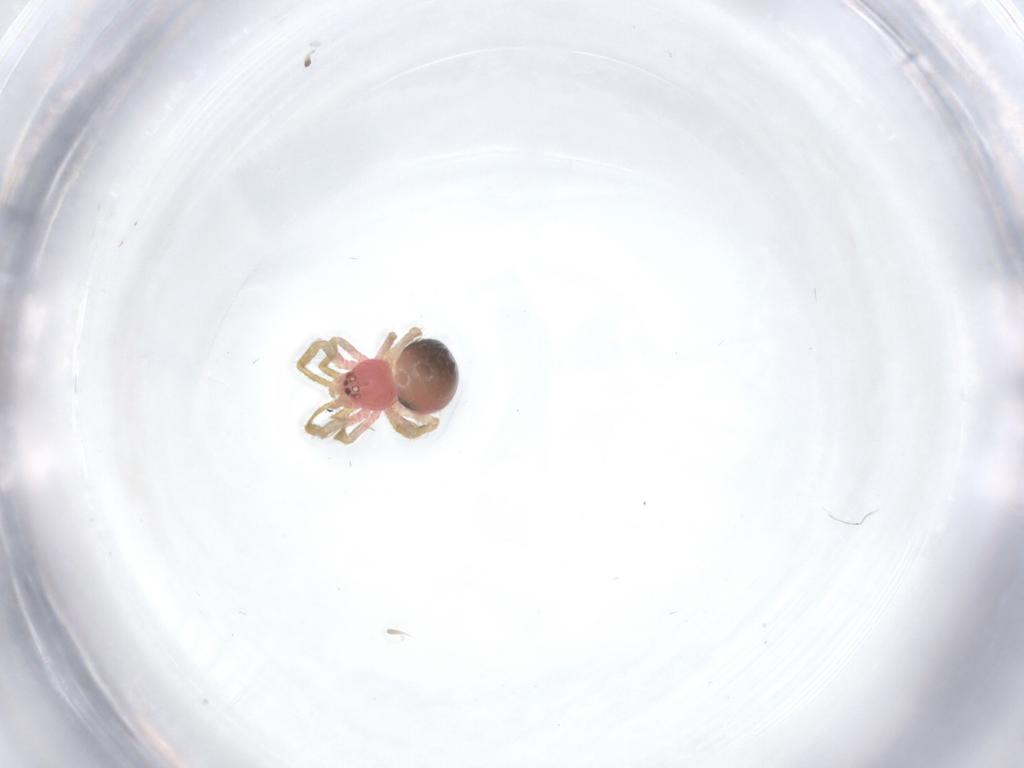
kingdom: Animalia
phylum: Arthropoda
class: Arachnida
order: Araneae
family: Theridiidae
